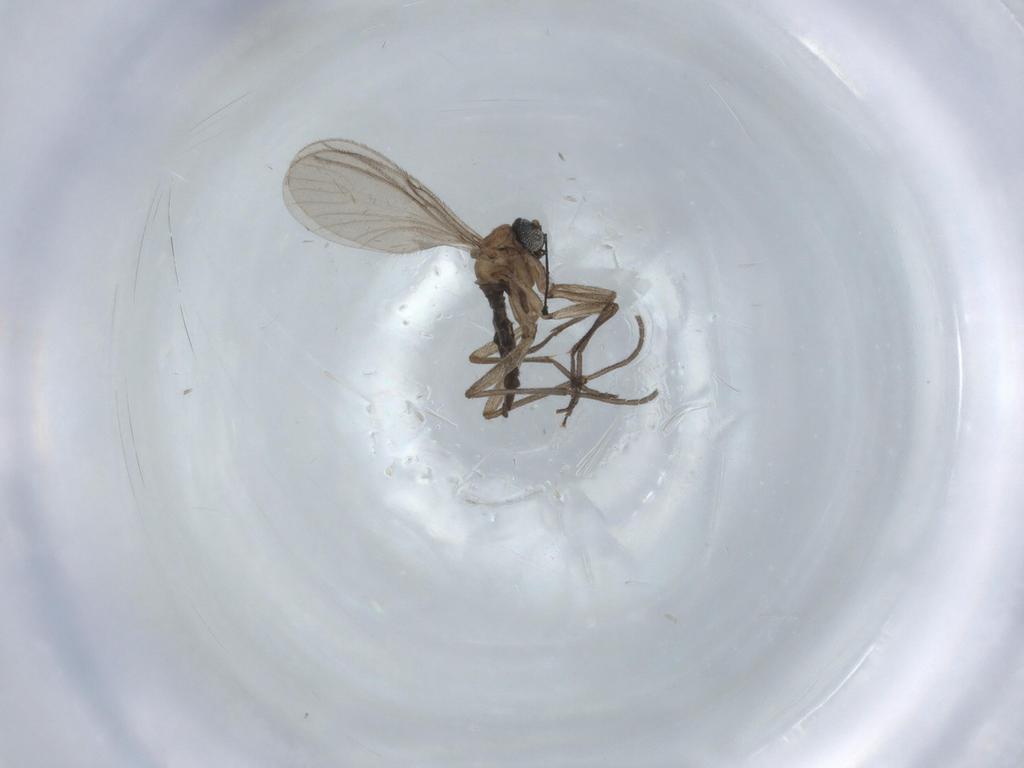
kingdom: Animalia
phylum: Arthropoda
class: Insecta
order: Diptera
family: Sciaridae
